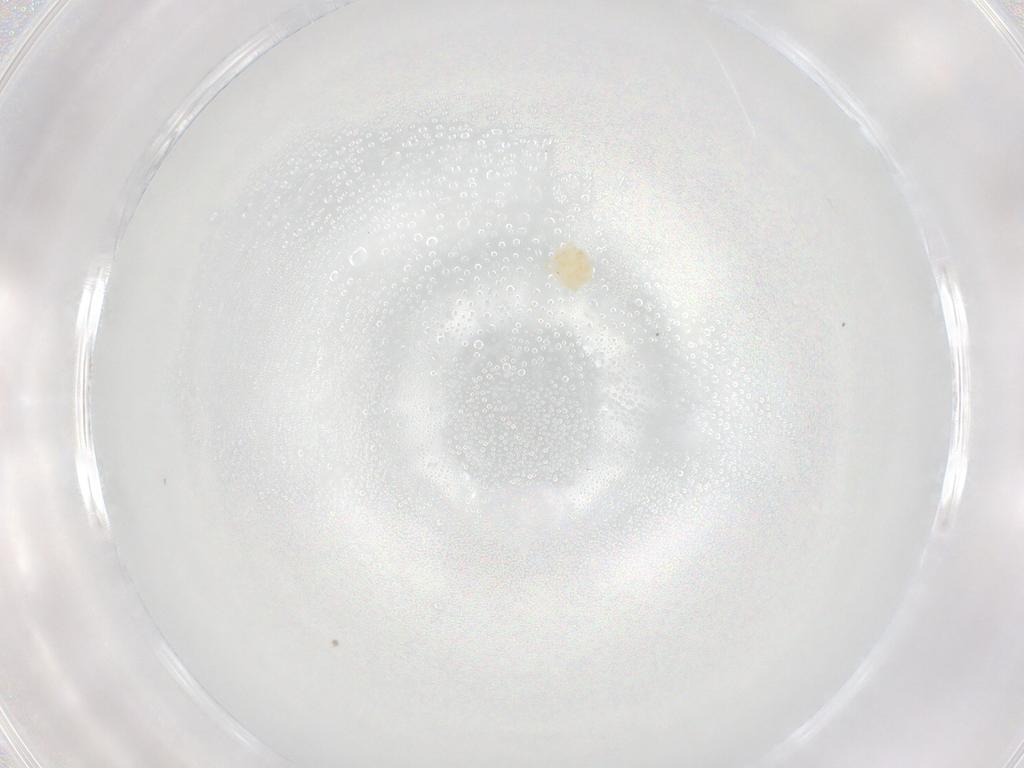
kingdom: Animalia
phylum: Arthropoda
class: Arachnida
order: Trombidiformes
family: Sperchontidae
